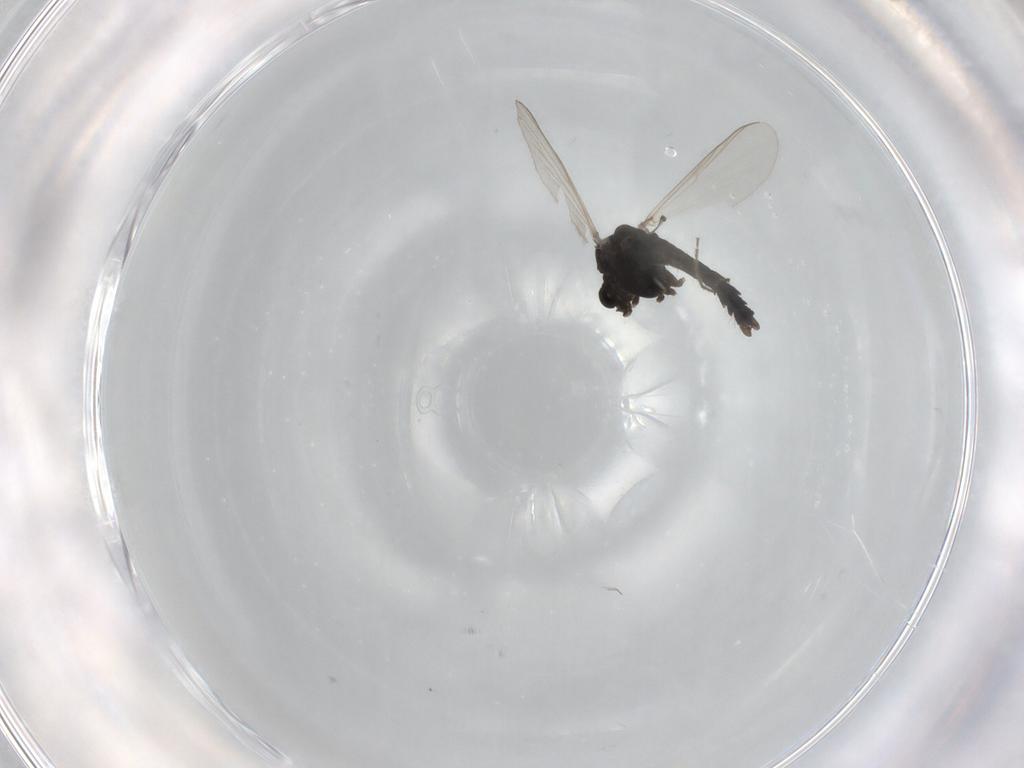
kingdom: Animalia
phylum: Arthropoda
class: Insecta
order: Diptera
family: Chironomidae
